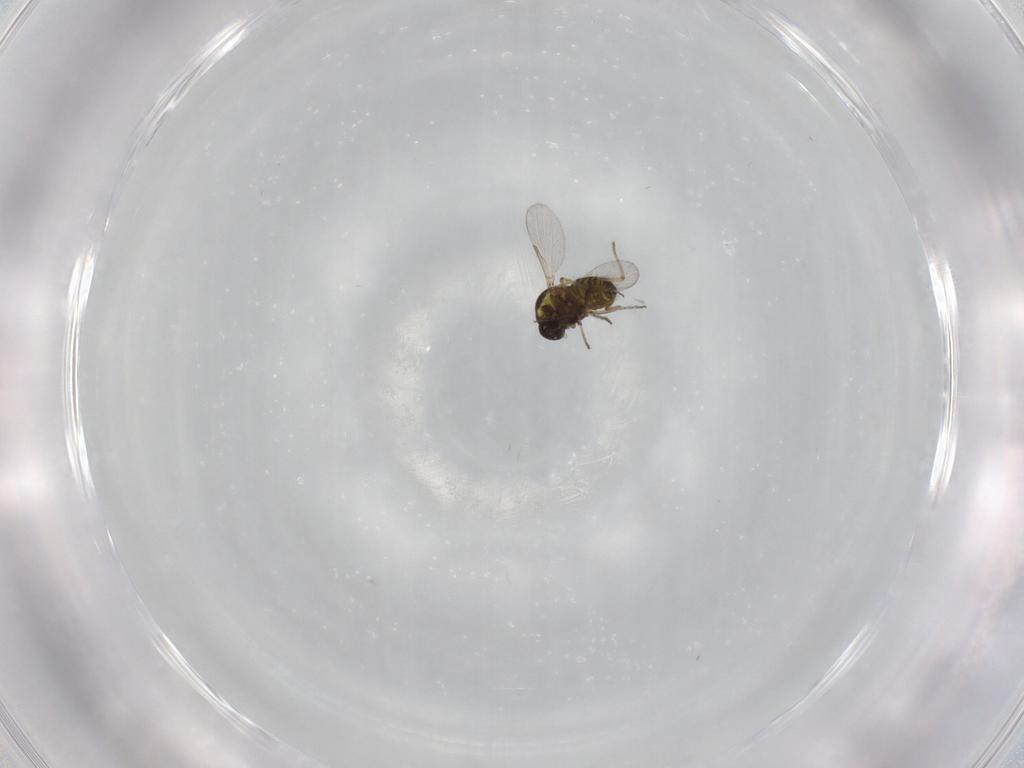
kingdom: Animalia
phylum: Arthropoda
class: Insecta
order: Diptera
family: Ceratopogonidae
